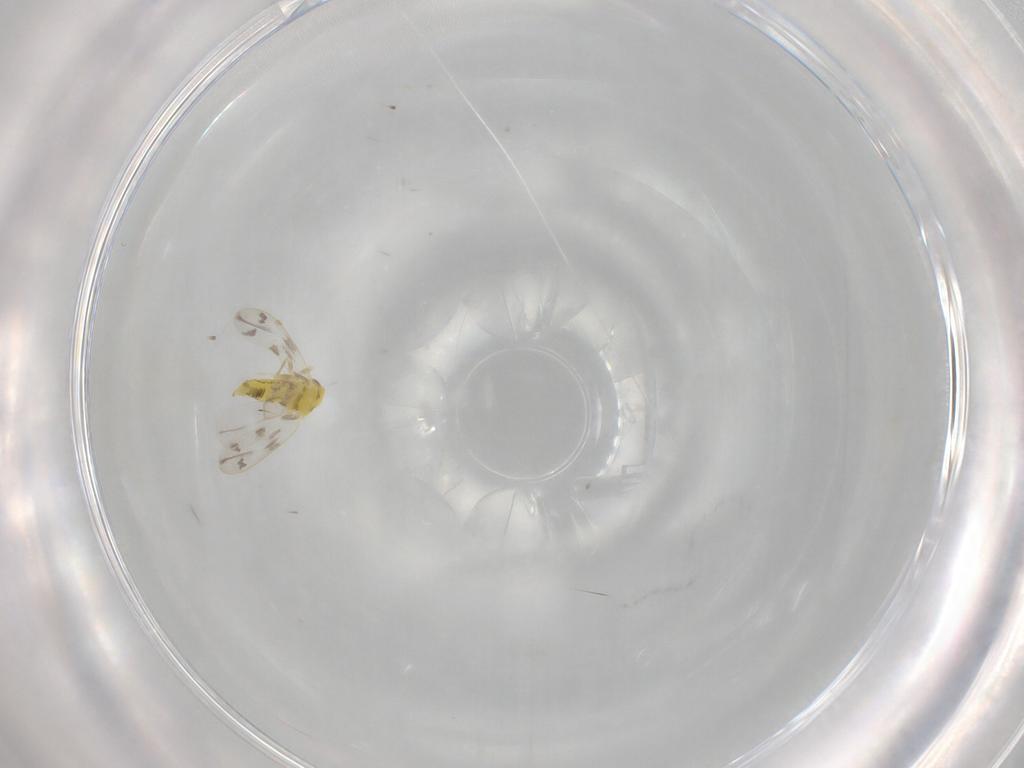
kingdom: Animalia
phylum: Arthropoda
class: Insecta
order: Hemiptera
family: Aleyrodidae
